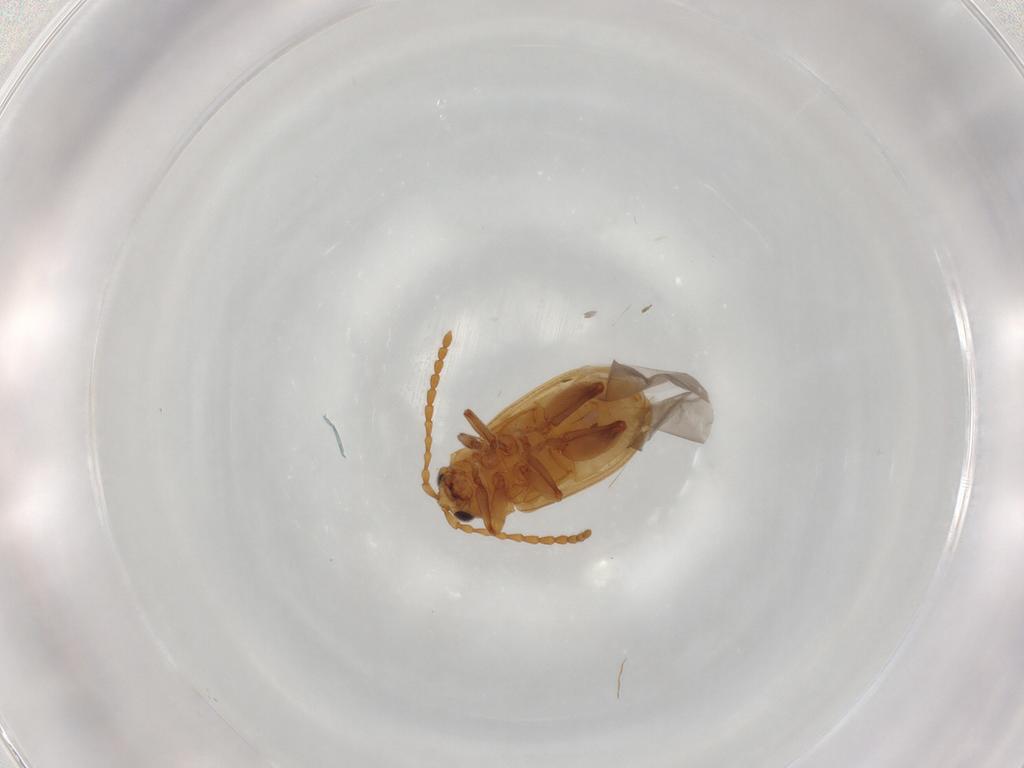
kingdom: Animalia
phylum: Arthropoda
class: Insecta
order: Coleoptera
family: Chrysomelidae
